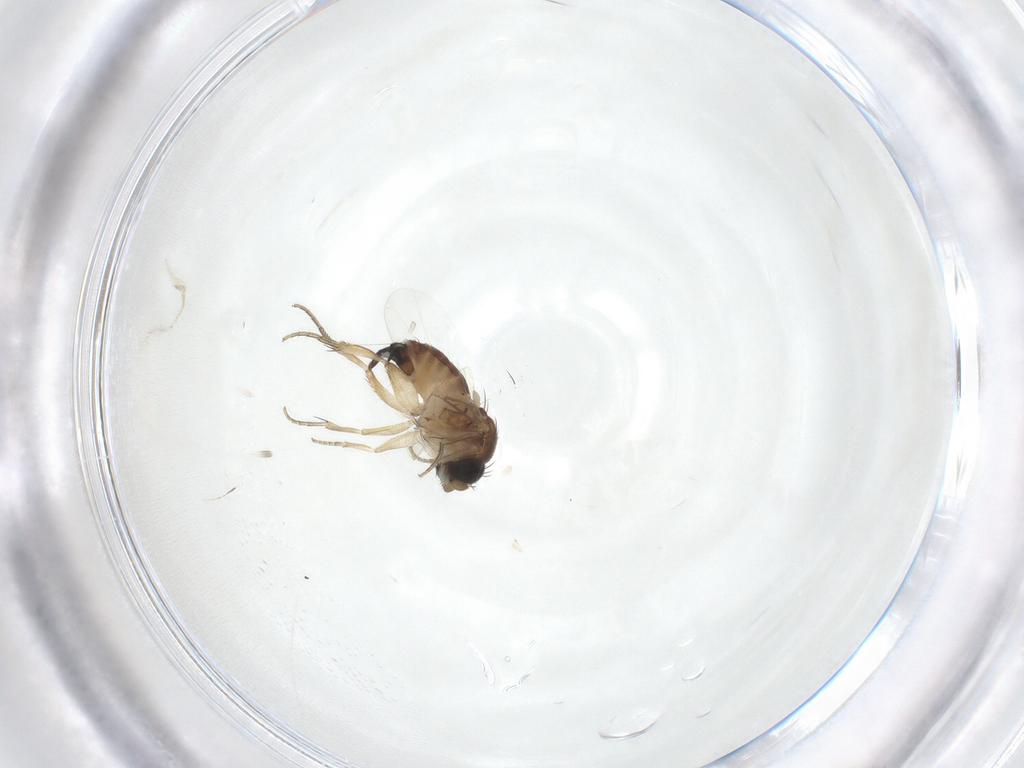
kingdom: Animalia
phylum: Arthropoda
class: Insecta
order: Diptera
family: Phoridae
